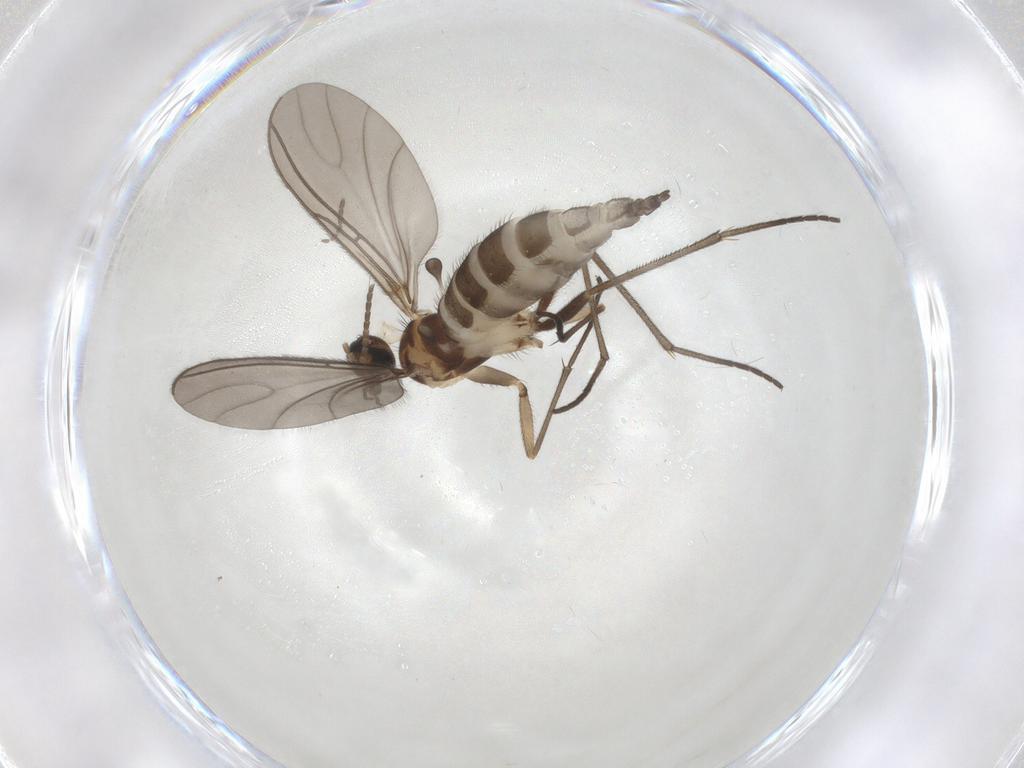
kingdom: Animalia
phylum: Arthropoda
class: Insecta
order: Diptera
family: Sciaridae
